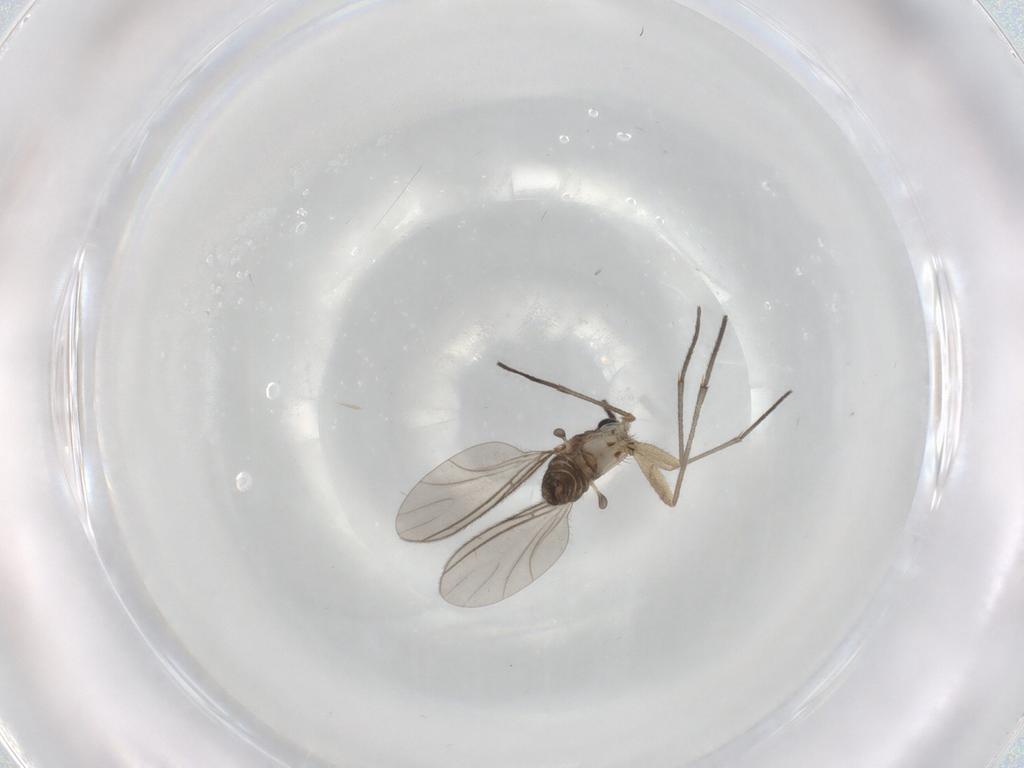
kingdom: Animalia
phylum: Arthropoda
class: Insecta
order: Diptera
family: Sciaridae
